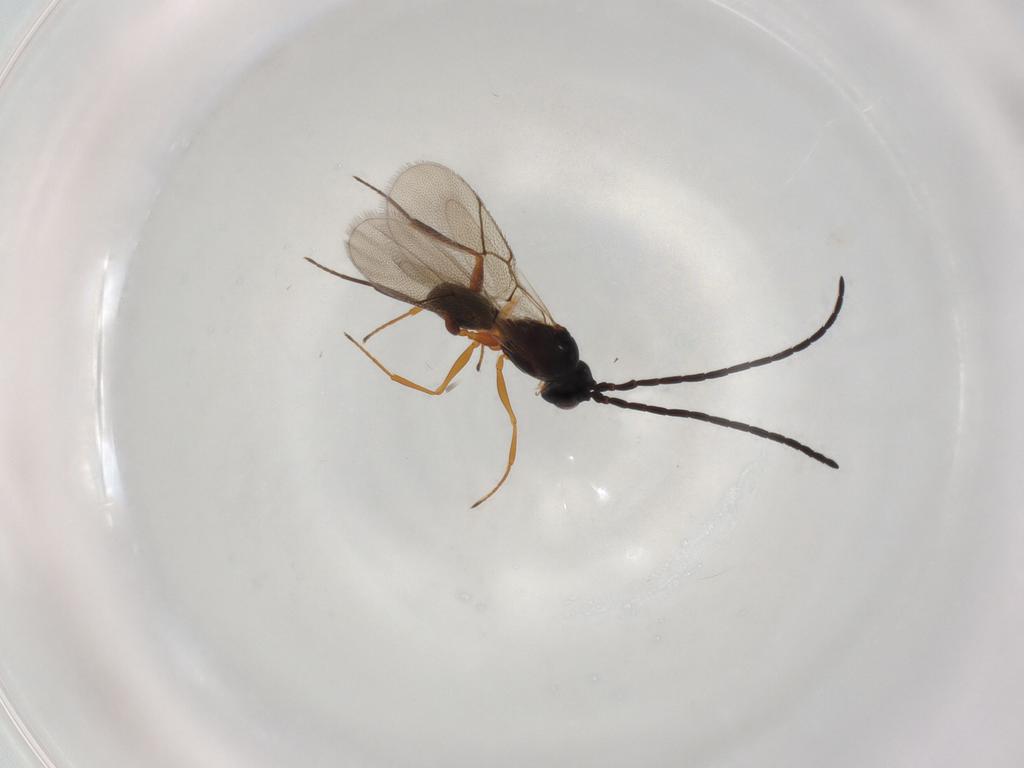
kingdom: Animalia
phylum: Arthropoda
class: Insecta
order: Hymenoptera
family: Figitidae
